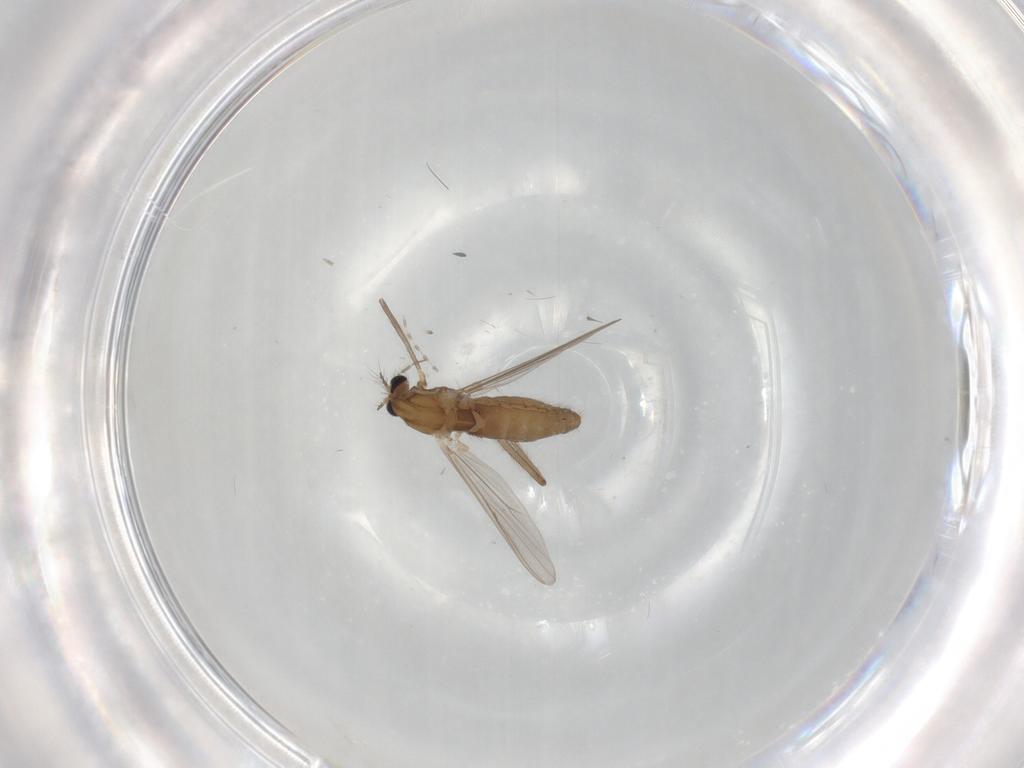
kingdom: Animalia
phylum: Arthropoda
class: Insecta
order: Diptera
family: Chironomidae
